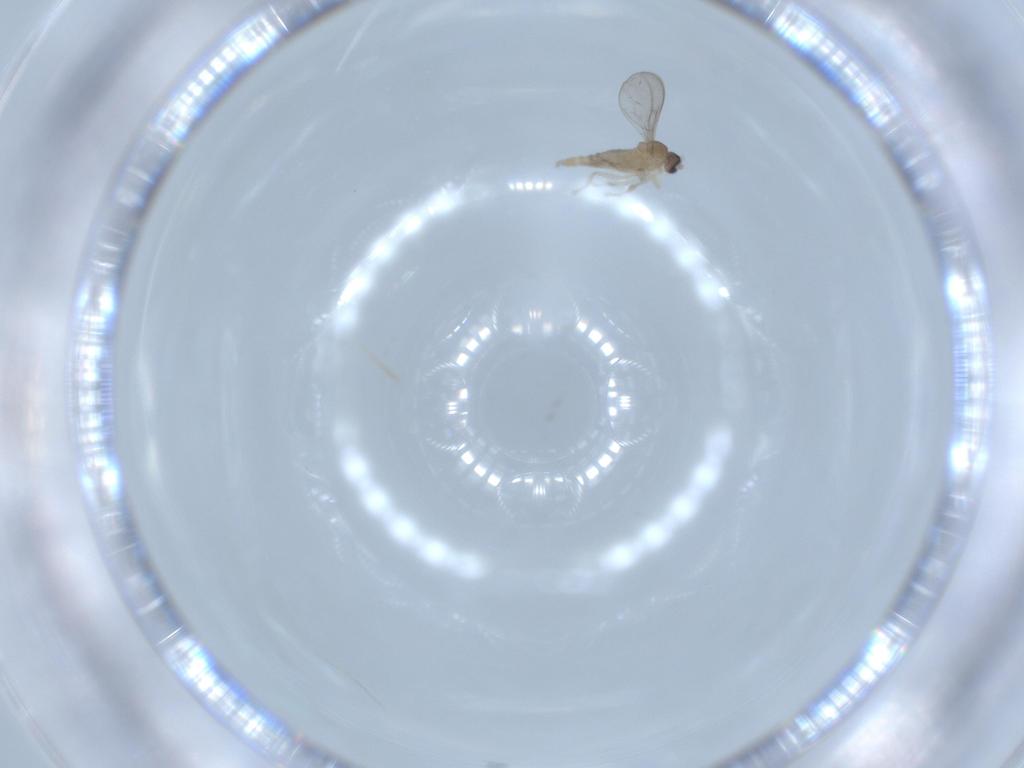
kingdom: Animalia
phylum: Arthropoda
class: Insecta
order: Diptera
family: Cecidomyiidae
